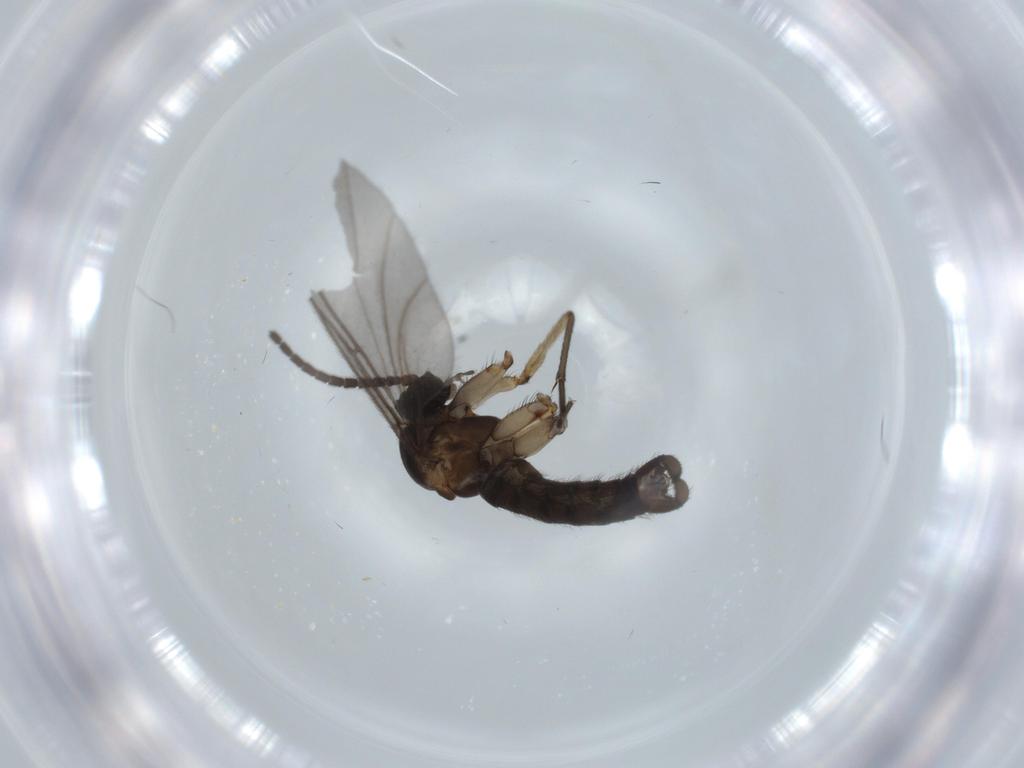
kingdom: Animalia
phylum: Arthropoda
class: Insecta
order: Diptera
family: Sciaridae
